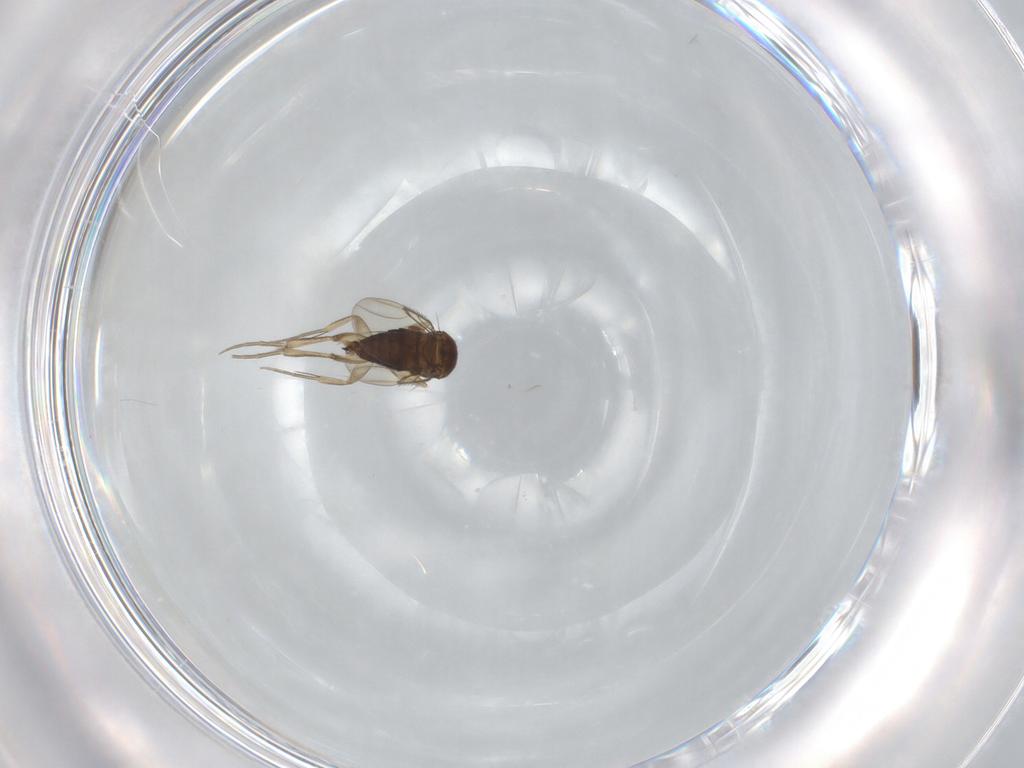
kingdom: Animalia
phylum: Arthropoda
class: Insecta
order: Diptera
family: Phoridae
